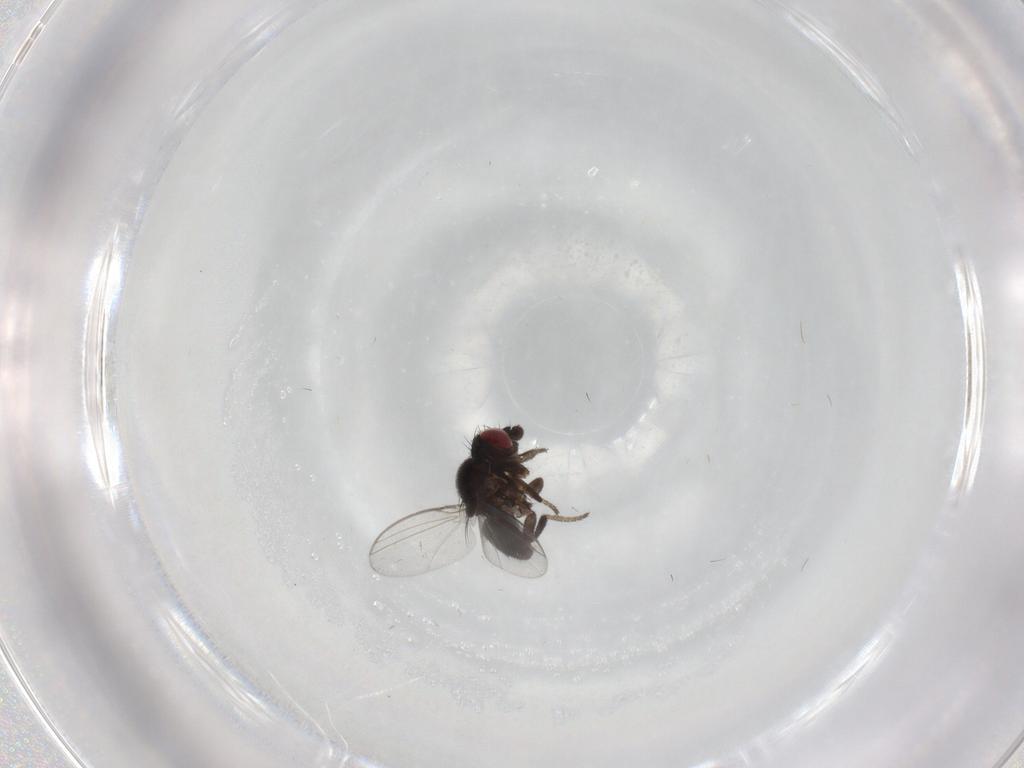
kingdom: Animalia
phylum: Arthropoda
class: Insecta
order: Diptera
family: Milichiidae
